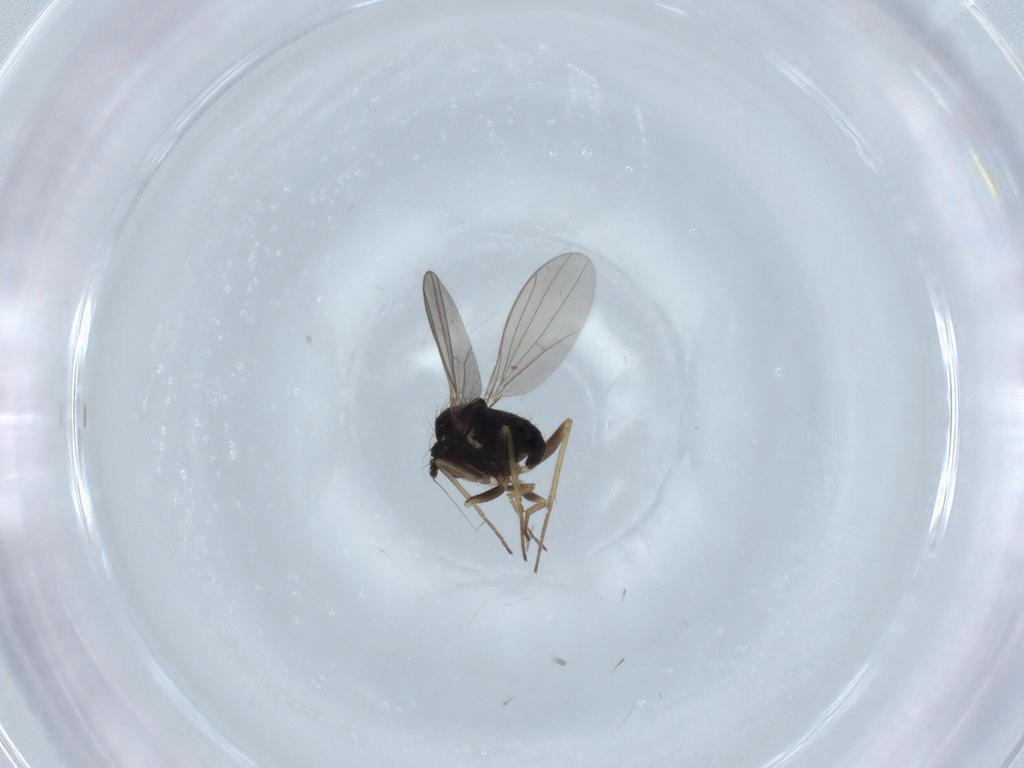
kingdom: Animalia
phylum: Arthropoda
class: Insecta
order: Diptera
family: Dolichopodidae
